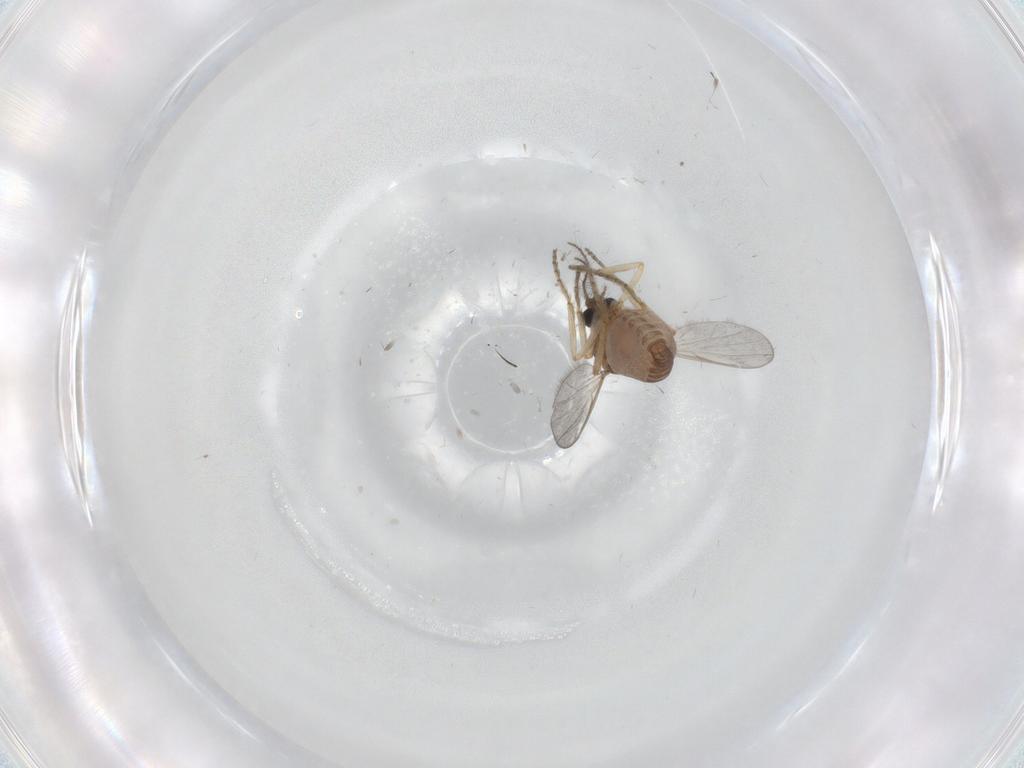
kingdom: Animalia
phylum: Arthropoda
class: Insecta
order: Diptera
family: Ceratopogonidae
